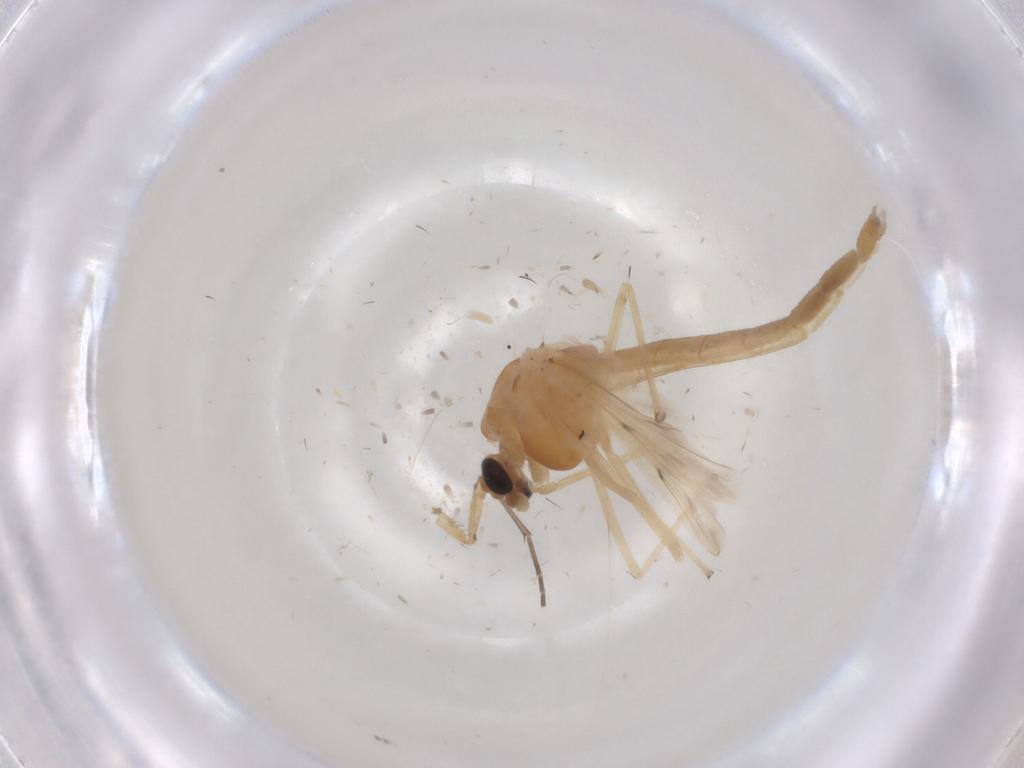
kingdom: Animalia
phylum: Arthropoda
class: Insecta
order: Diptera
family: Chironomidae
